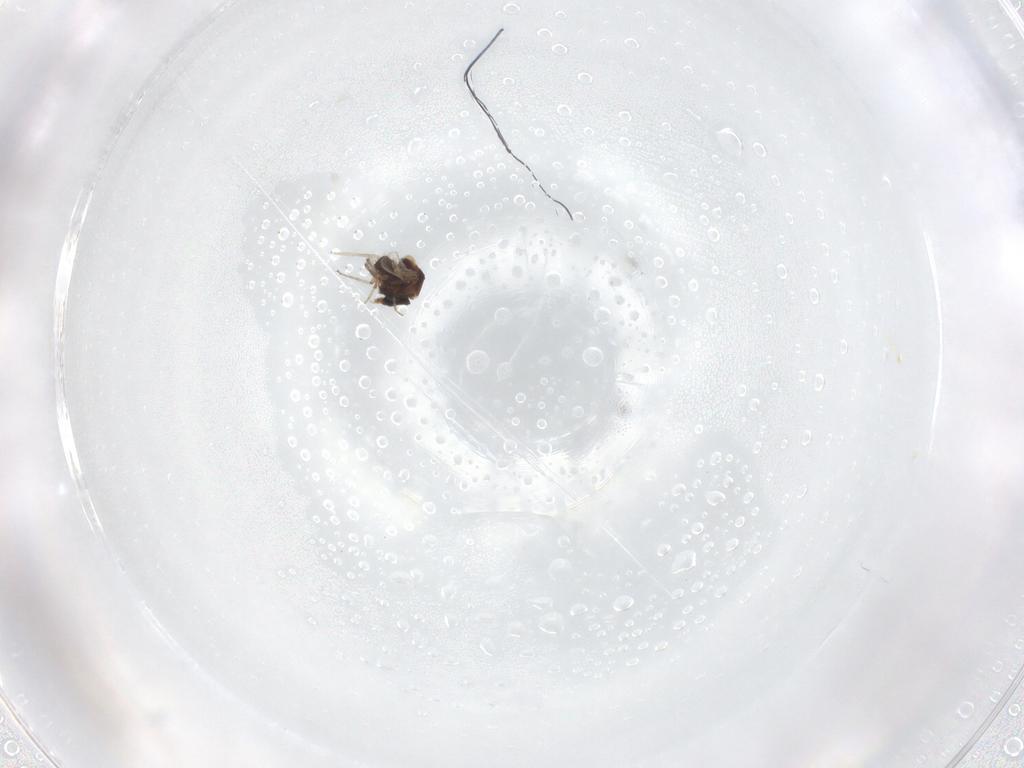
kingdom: Animalia
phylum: Arthropoda
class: Insecta
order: Diptera
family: Ceratopogonidae
